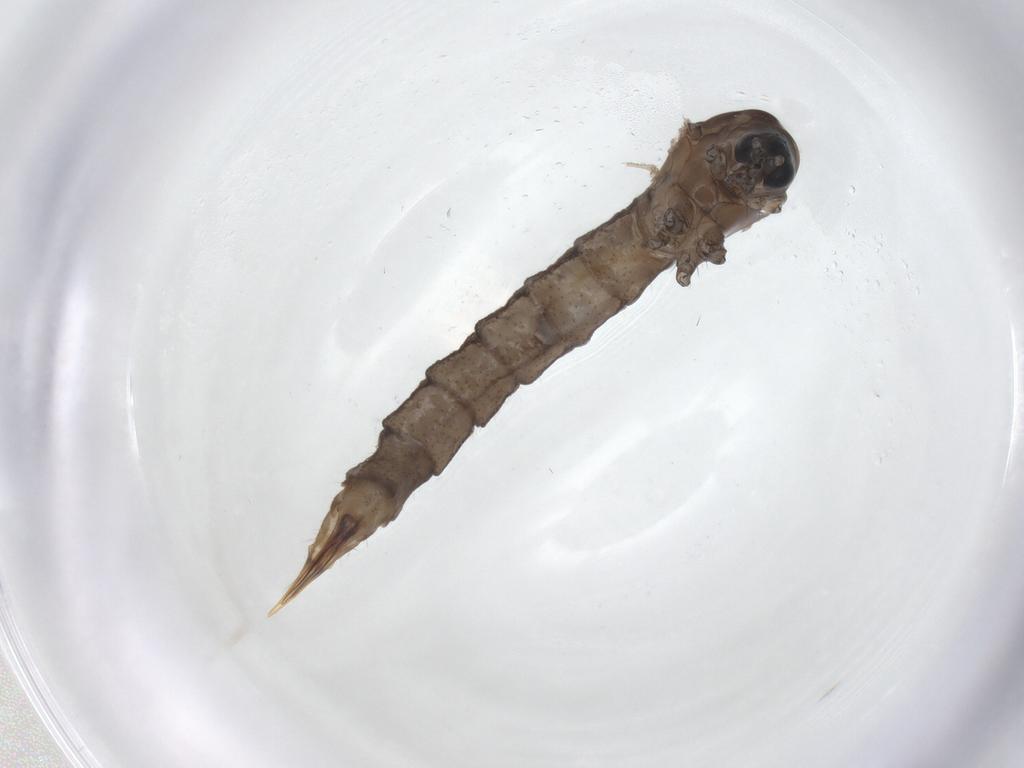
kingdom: Animalia
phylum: Arthropoda
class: Insecta
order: Diptera
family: Limoniidae
